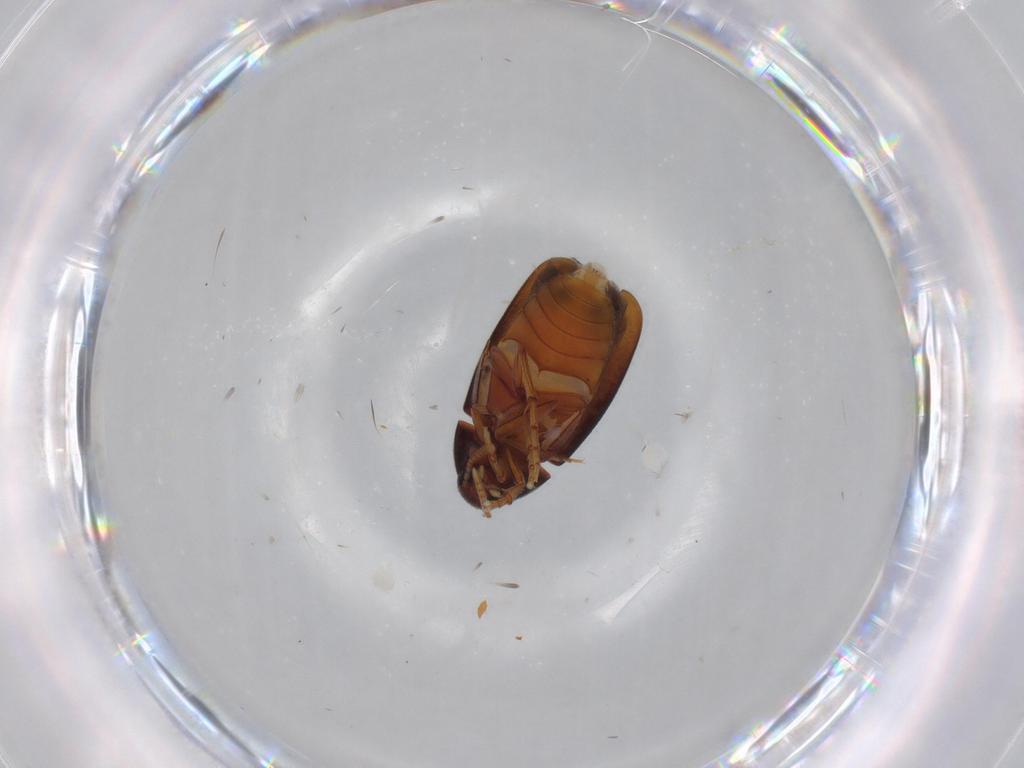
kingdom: Animalia
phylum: Arthropoda
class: Insecta
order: Coleoptera
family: Scraptiidae
